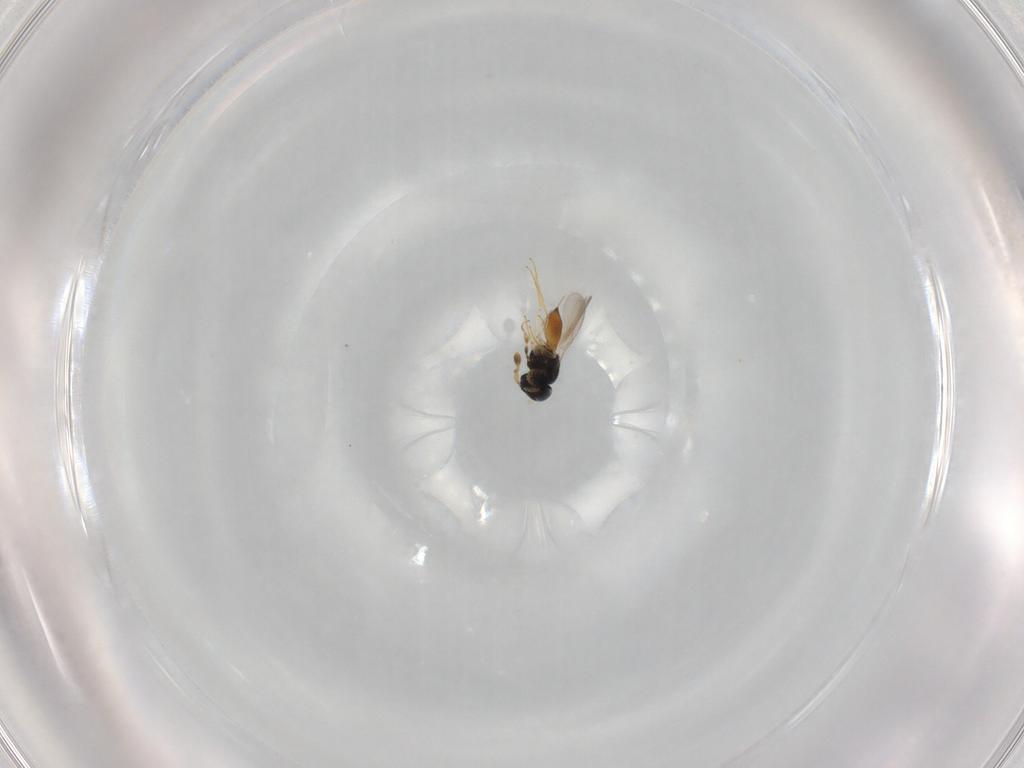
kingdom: Animalia
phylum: Arthropoda
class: Insecta
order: Hymenoptera
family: Scelionidae
